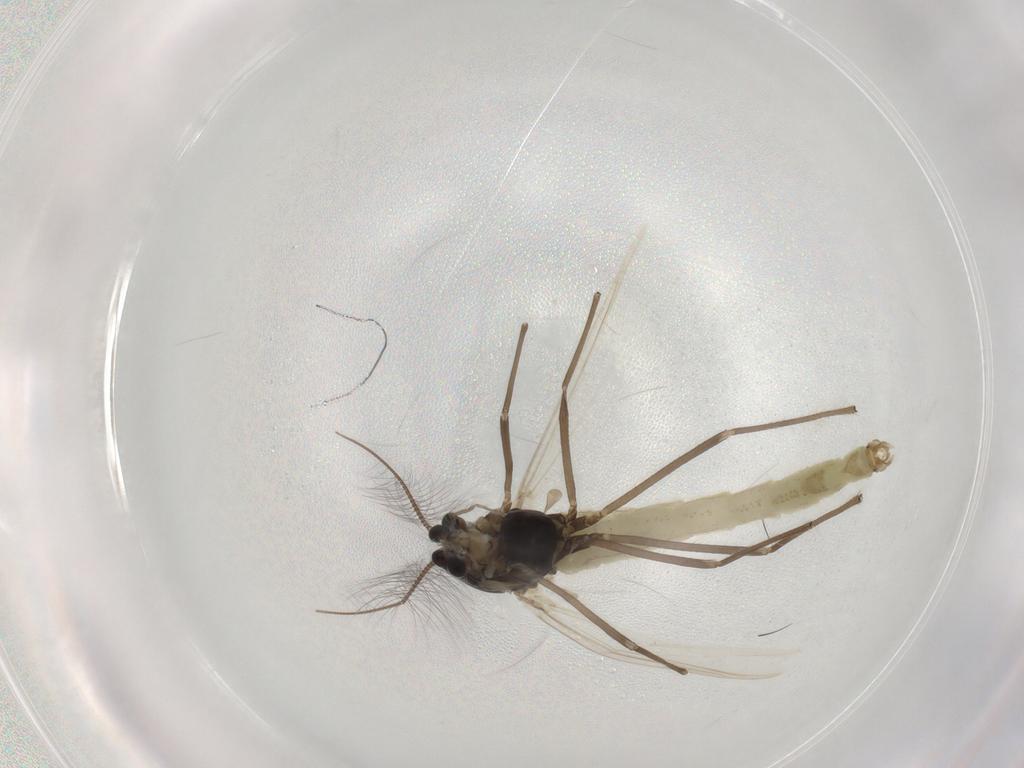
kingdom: Animalia
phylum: Arthropoda
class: Insecta
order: Diptera
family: Chironomidae
